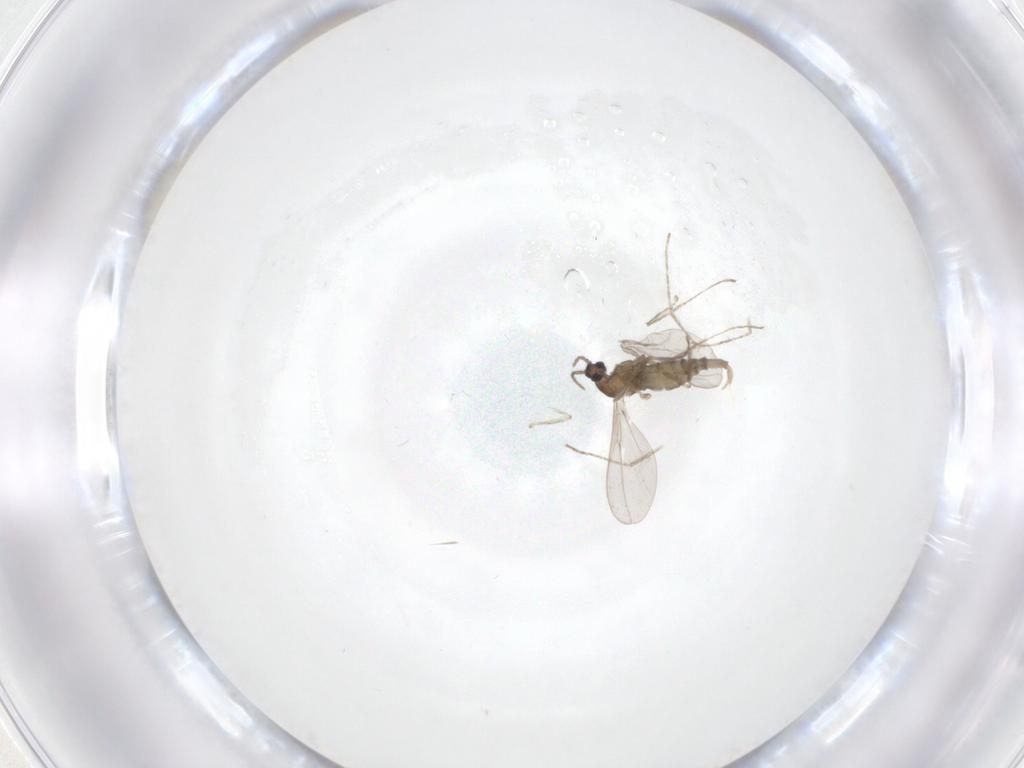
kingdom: Animalia
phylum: Arthropoda
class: Insecta
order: Diptera
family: Cecidomyiidae
